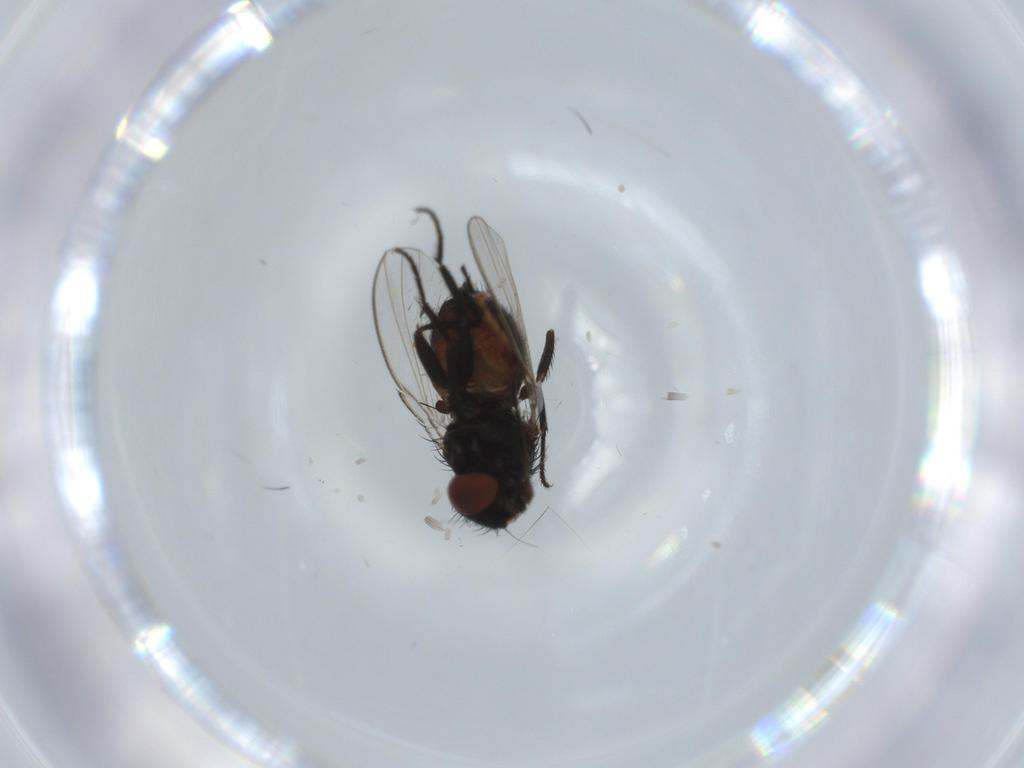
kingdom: Animalia
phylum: Arthropoda
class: Insecta
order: Diptera
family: Milichiidae
